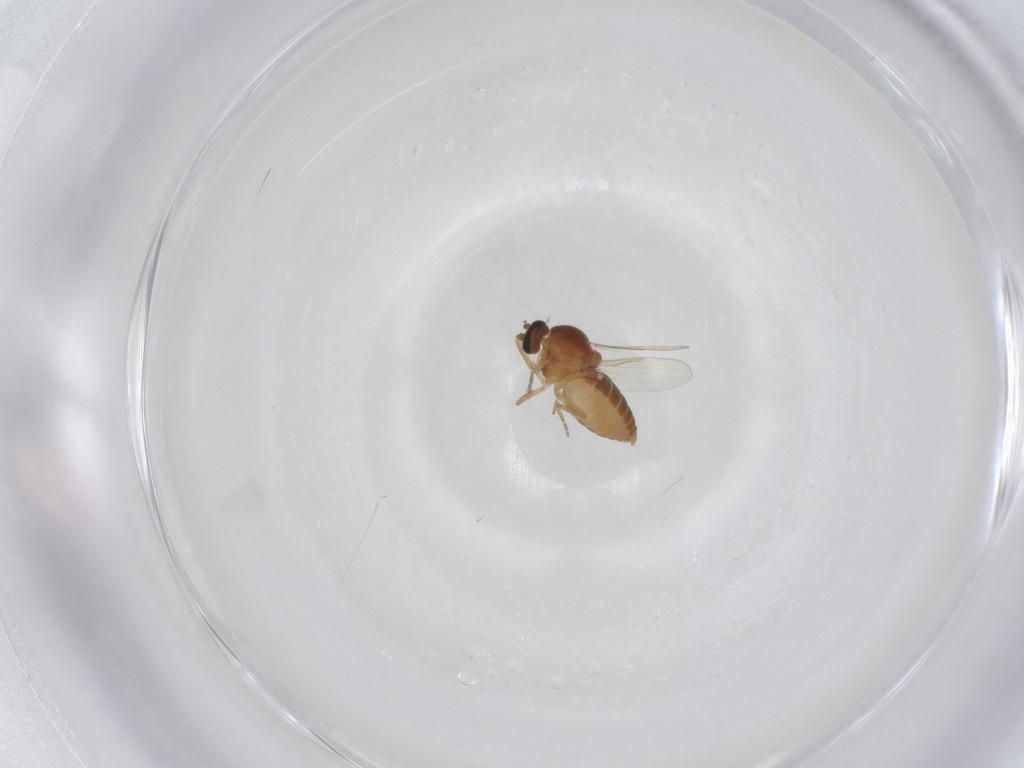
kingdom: Animalia
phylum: Arthropoda
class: Insecta
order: Diptera
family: Ceratopogonidae
